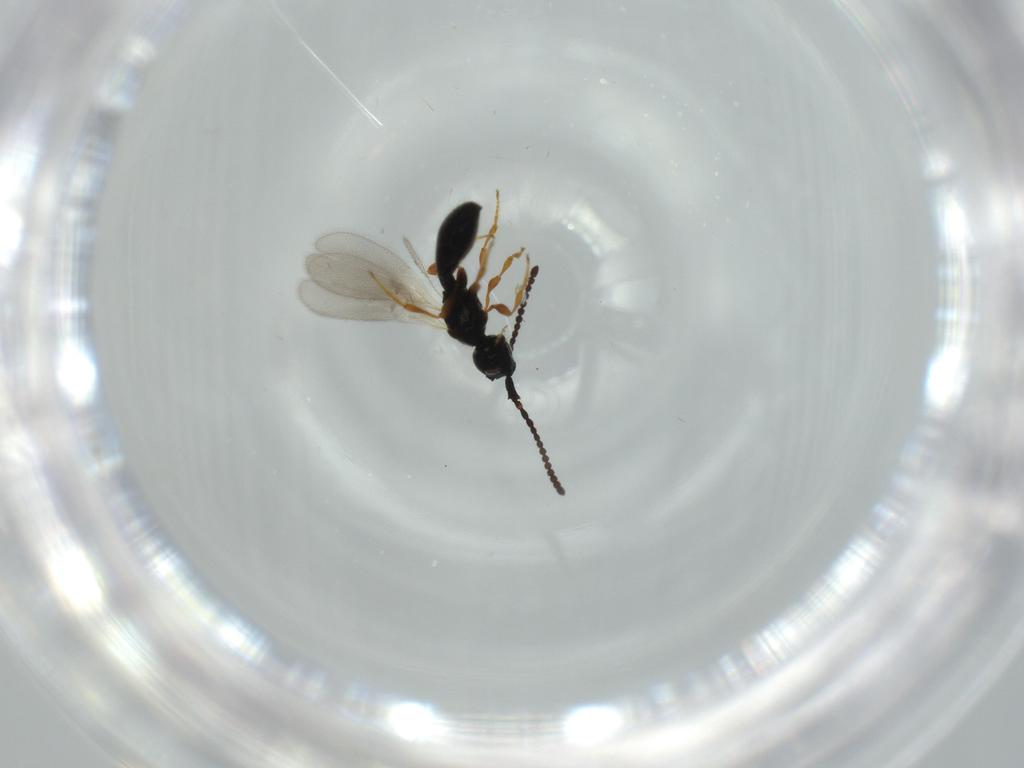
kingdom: Animalia
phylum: Arthropoda
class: Insecta
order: Hymenoptera
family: Diapriidae
